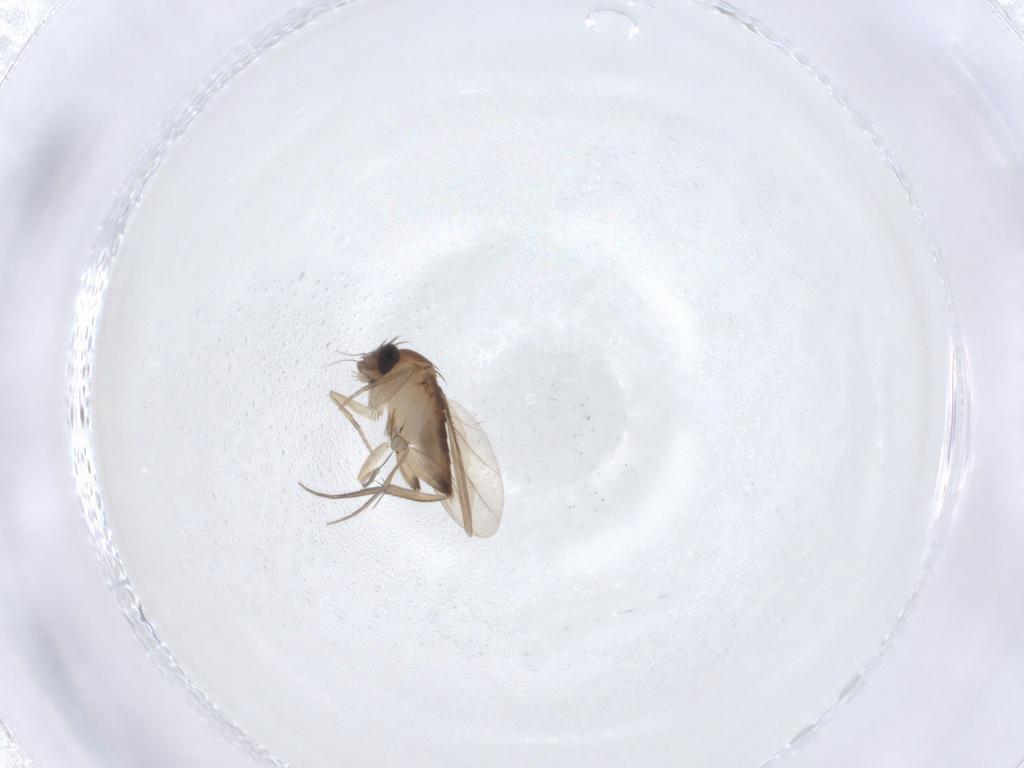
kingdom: Animalia
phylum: Arthropoda
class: Insecta
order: Diptera
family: Phoridae
